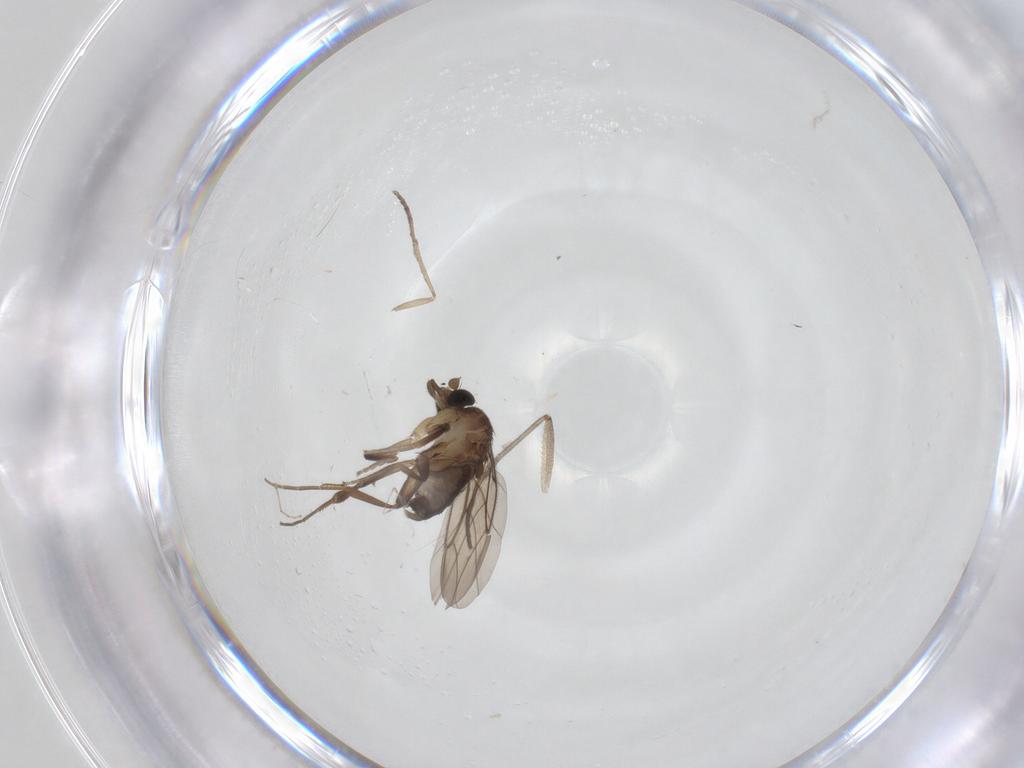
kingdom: Animalia
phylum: Arthropoda
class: Insecta
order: Diptera
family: Phoridae
